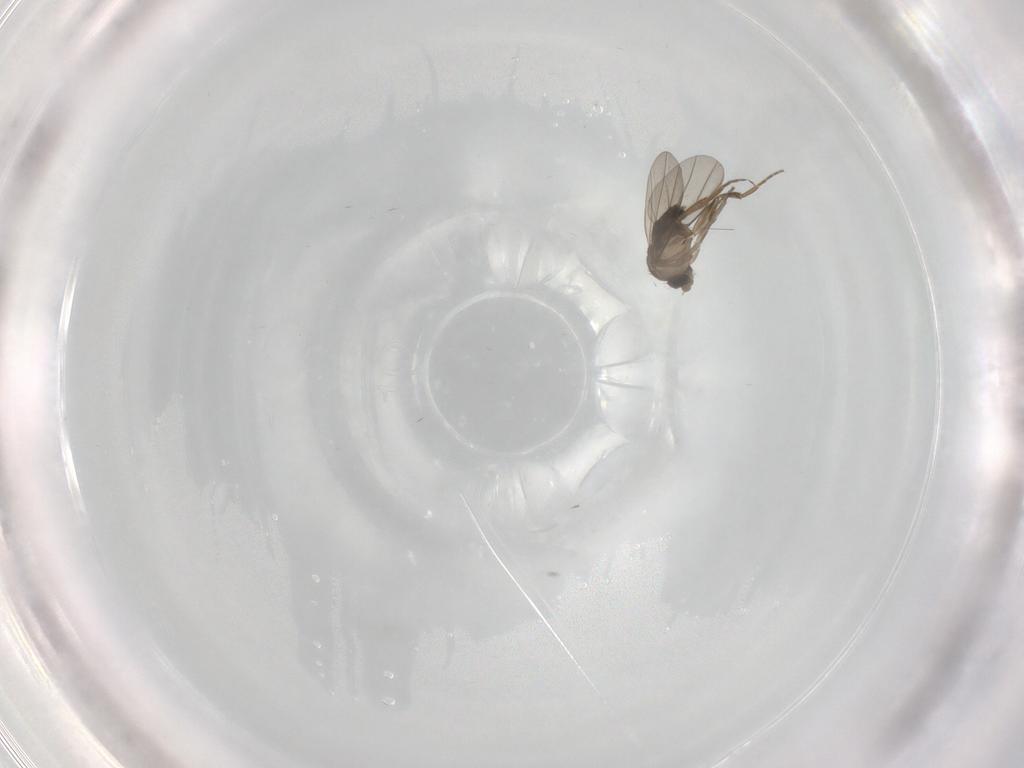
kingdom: Animalia
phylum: Arthropoda
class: Insecta
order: Diptera
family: Phoridae
